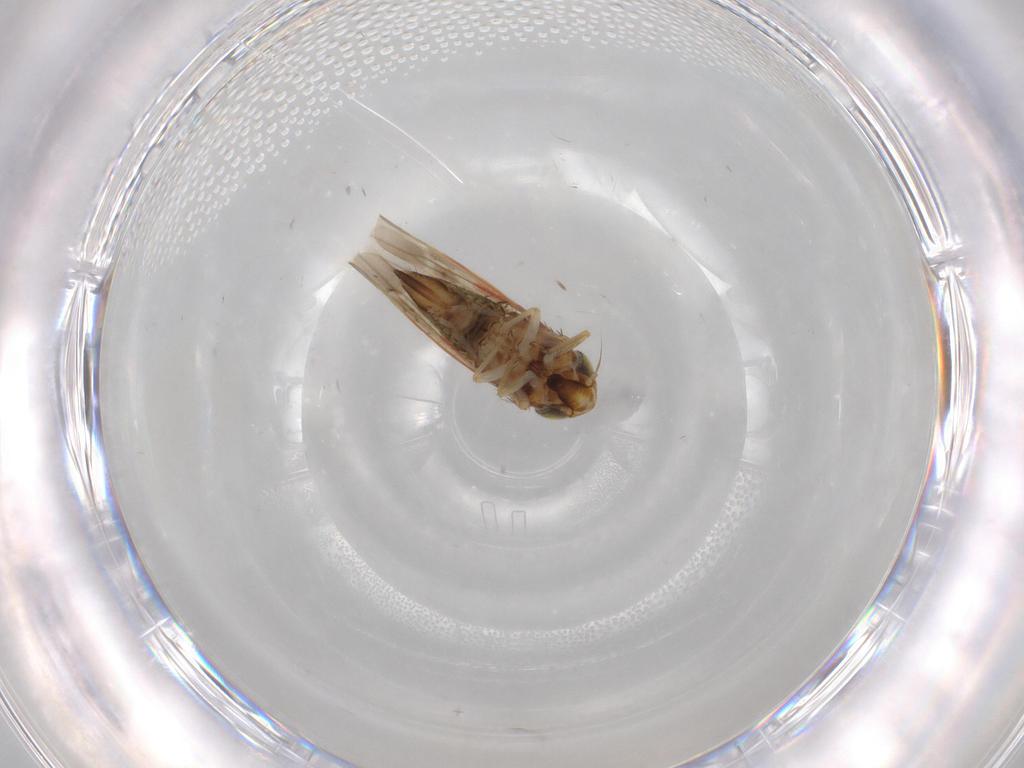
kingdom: Animalia
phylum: Arthropoda
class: Insecta
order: Hemiptera
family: Cicadellidae
